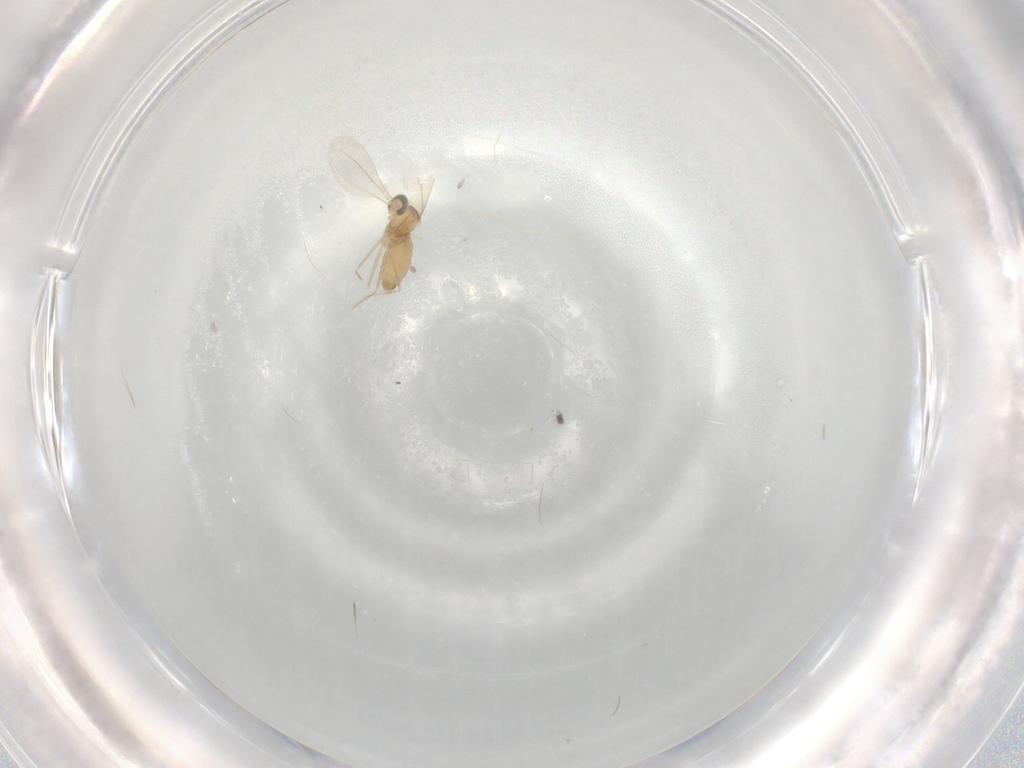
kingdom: Animalia
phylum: Arthropoda
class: Insecta
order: Diptera
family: Cecidomyiidae
